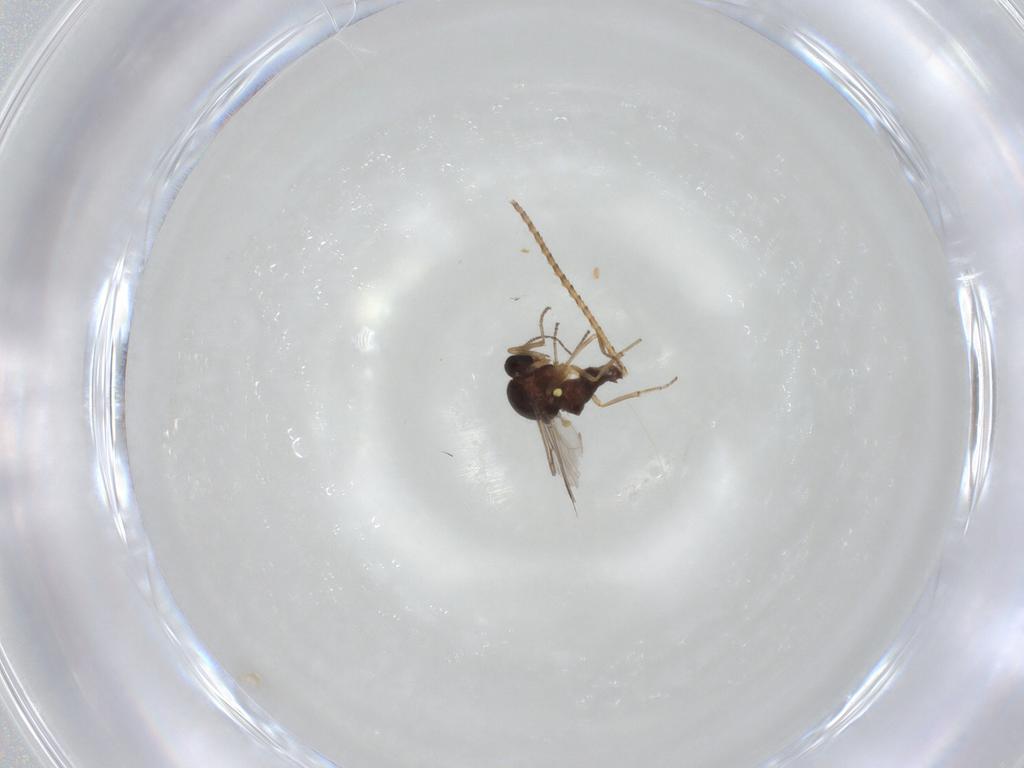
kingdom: Animalia
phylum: Arthropoda
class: Insecta
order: Diptera
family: Ceratopogonidae
